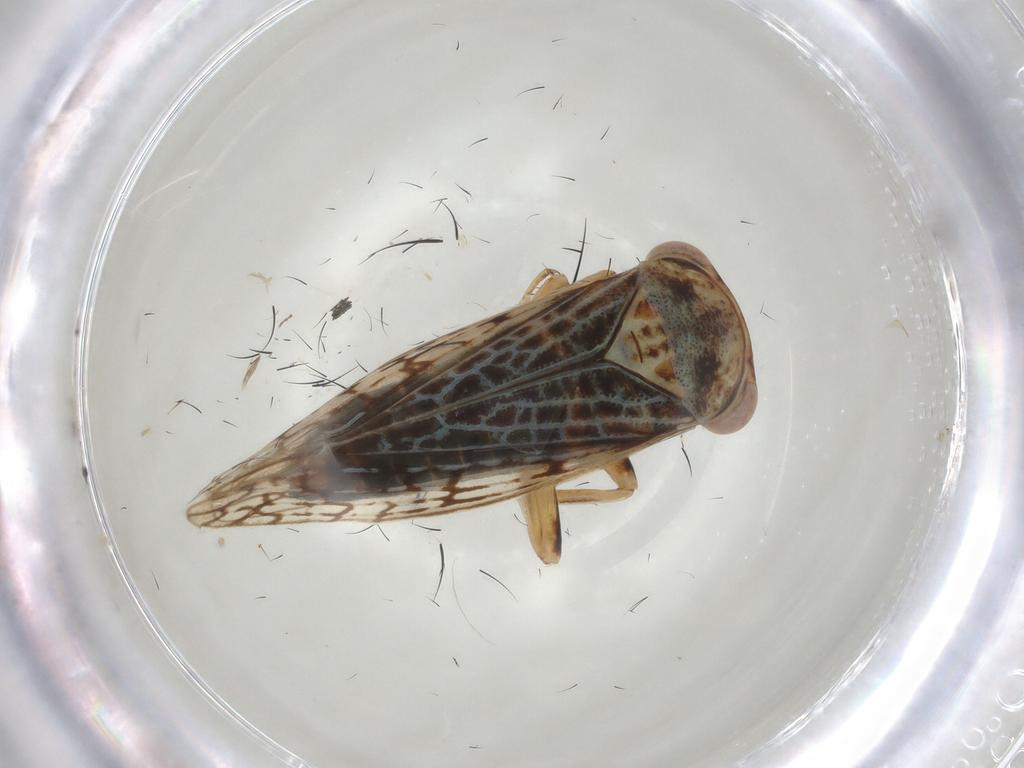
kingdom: Animalia
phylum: Arthropoda
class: Insecta
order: Hemiptera
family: Cicadellidae
